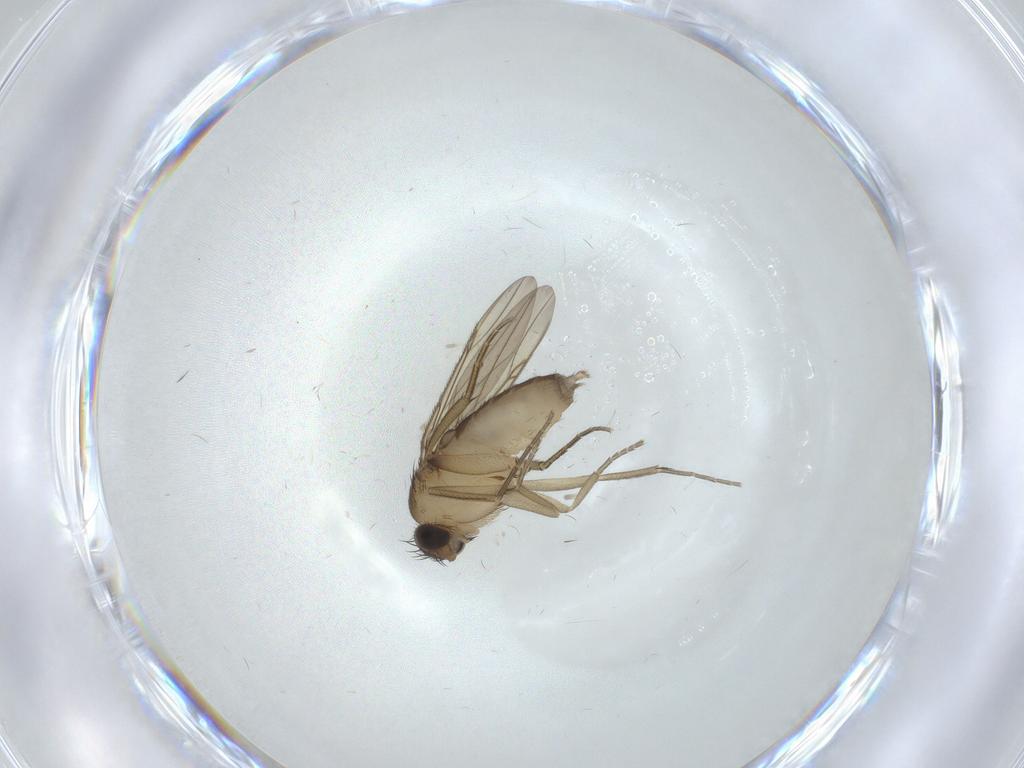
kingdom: Animalia
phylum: Arthropoda
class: Insecta
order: Diptera
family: Phoridae
